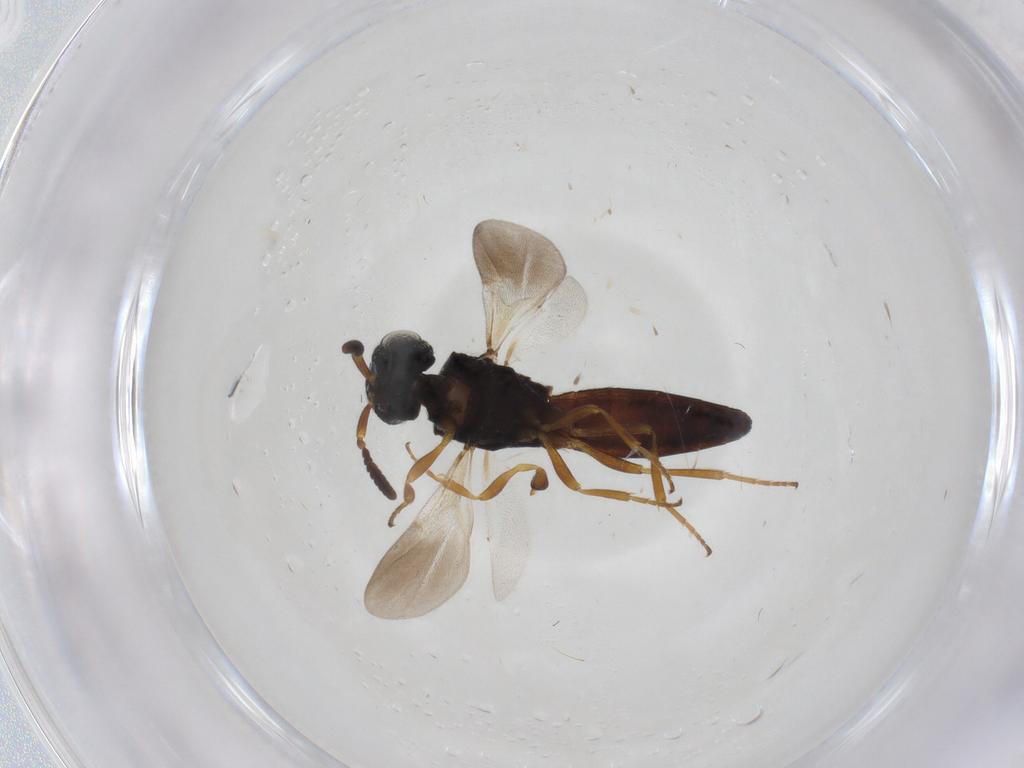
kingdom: Animalia
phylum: Arthropoda
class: Insecta
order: Hymenoptera
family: Scelionidae
